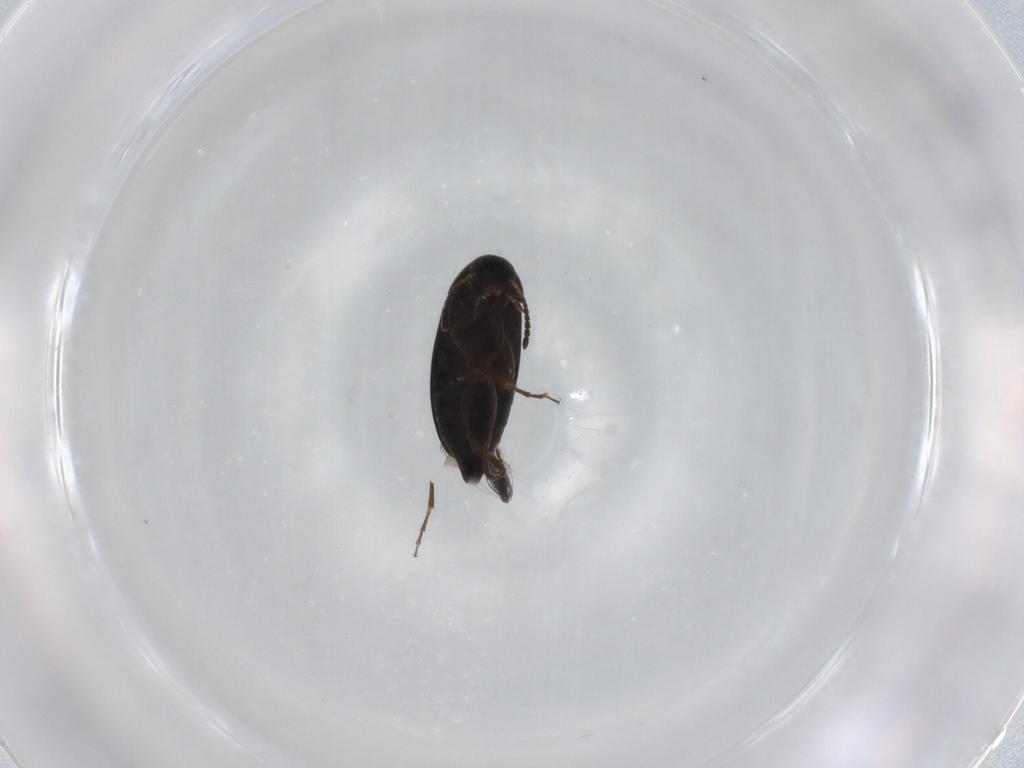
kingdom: Animalia
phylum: Arthropoda
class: Insecta
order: Coleoptera
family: Scraptiidae
